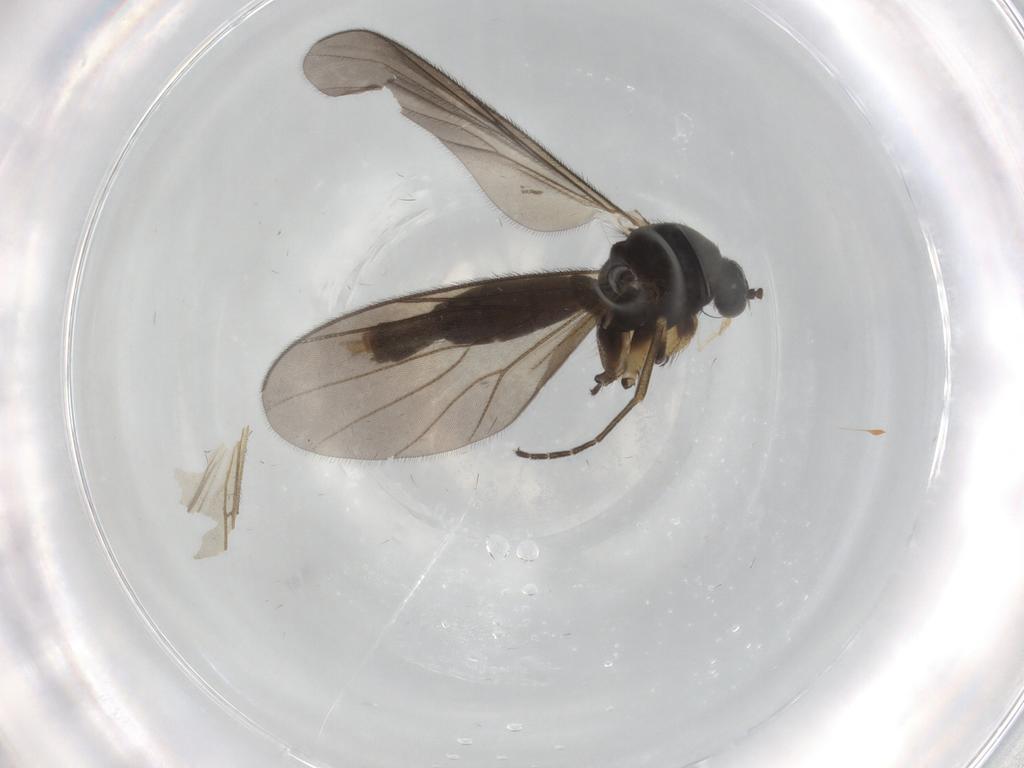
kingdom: Animalia
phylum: Arthropoda
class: Insecta
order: Diptera
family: Mycetophilidae
